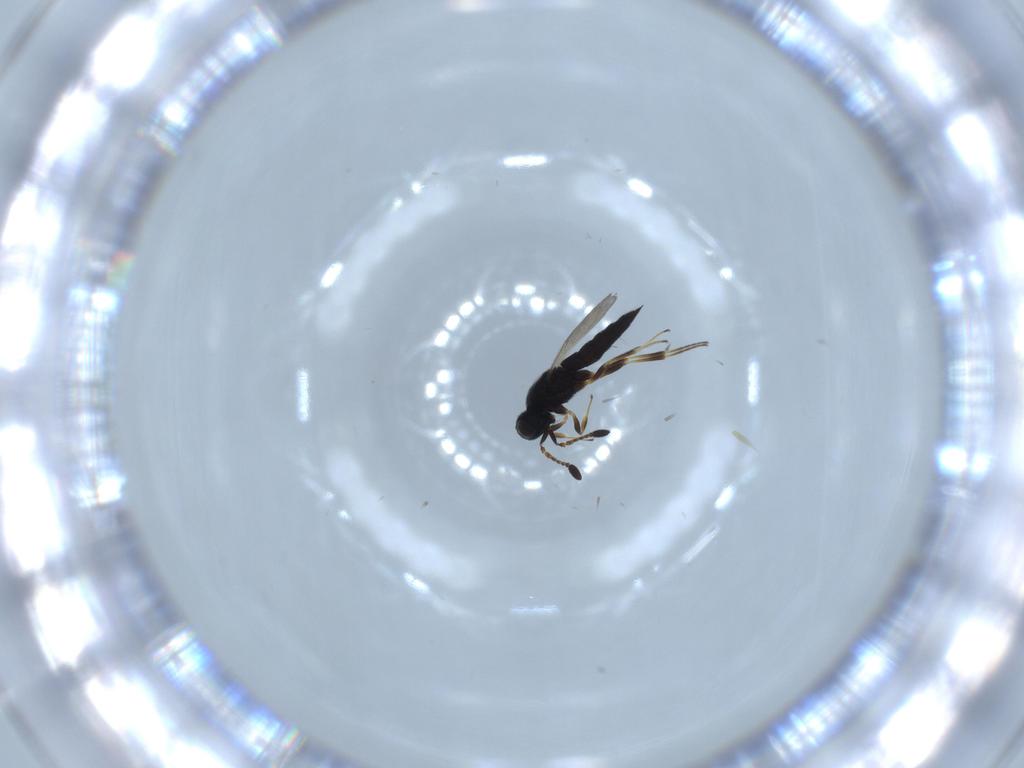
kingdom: Animalia
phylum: Arthropoda
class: Insecta
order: Hymenoptera
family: Scelionidae
